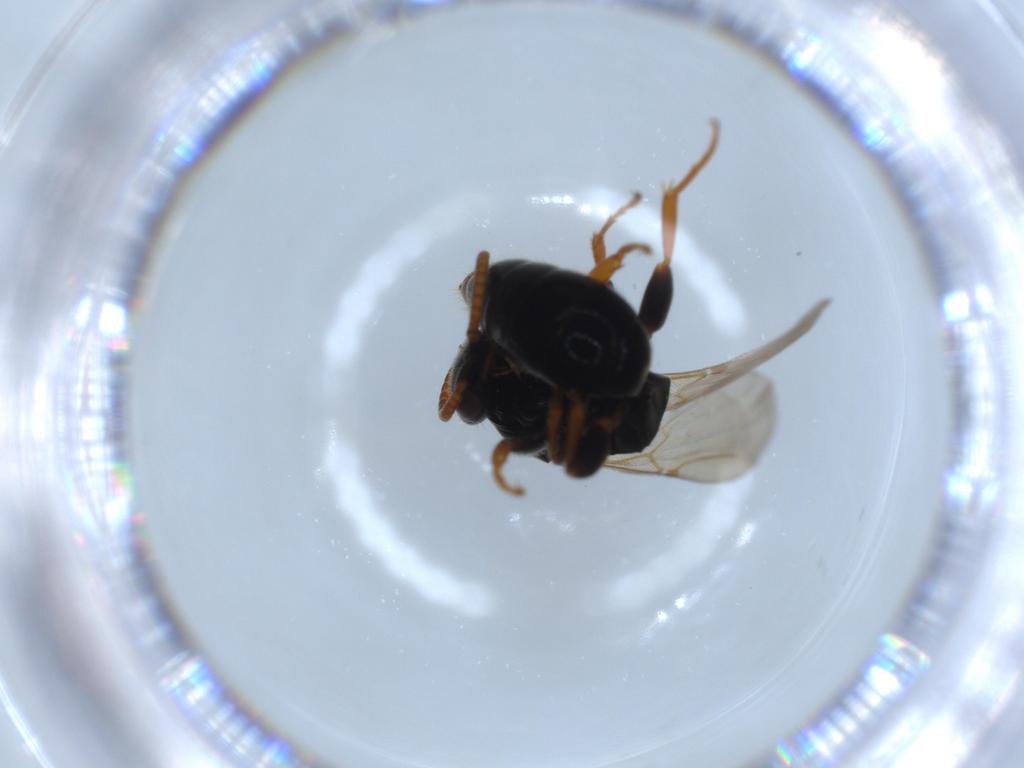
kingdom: Animalia
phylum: Arthropoda
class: Insecta
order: Hymenoptera
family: Bethylidae
